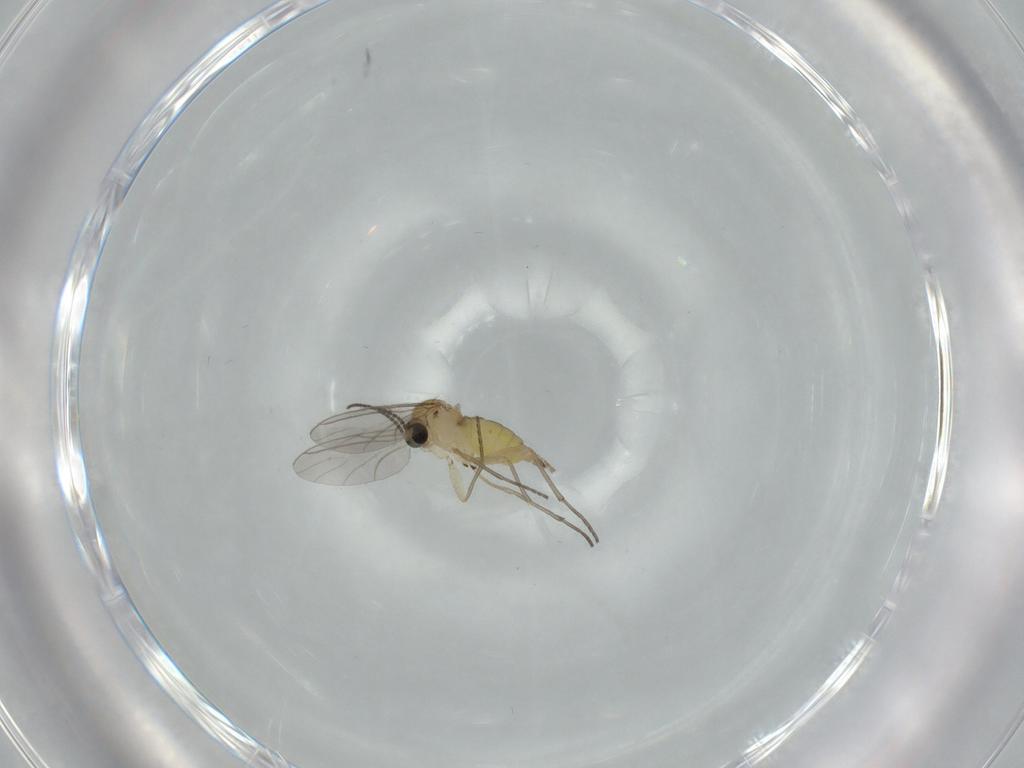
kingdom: Animalia
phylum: Arthropoda
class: Insecta
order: Diptera
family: Sciaridae
